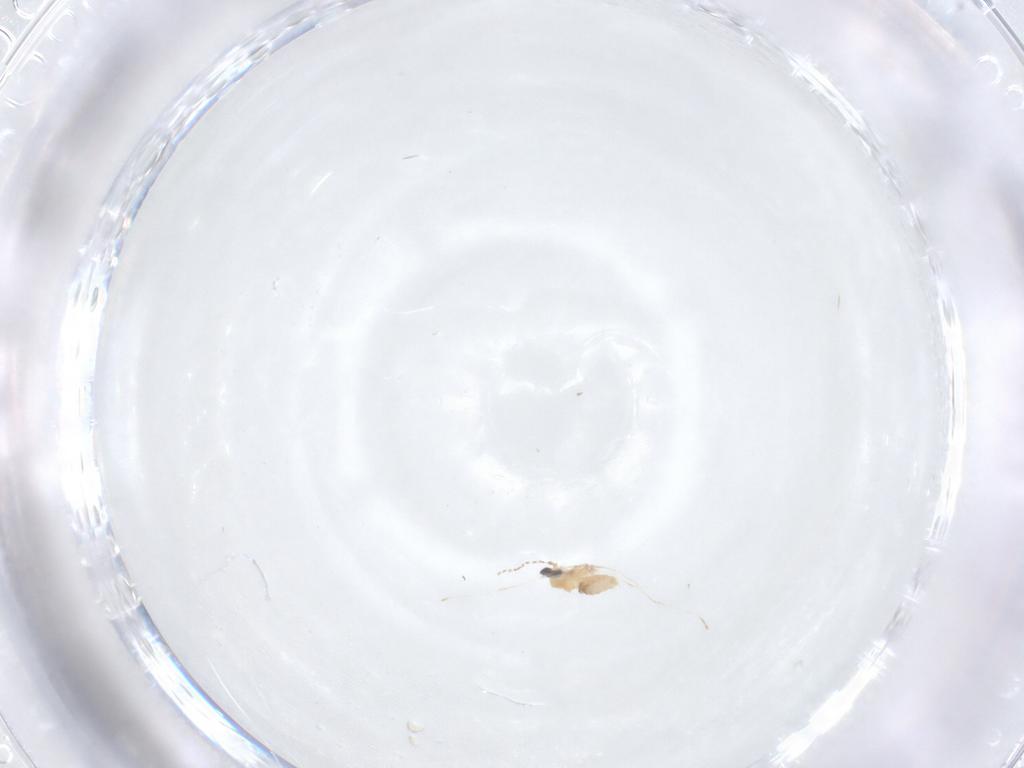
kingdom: Animalia
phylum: Arthropoda
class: Insecta
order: Diptera
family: Cecidomyiidae
